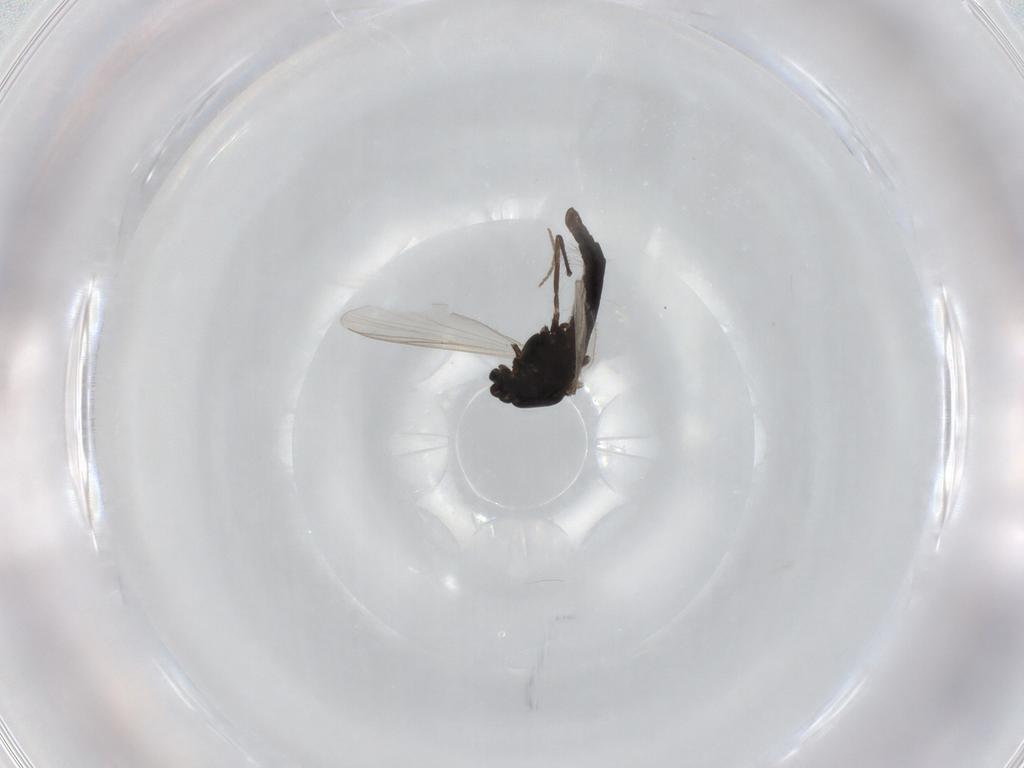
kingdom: Animalia
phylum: Arthropoda
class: Insecta
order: Diptera
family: Chironomidae
